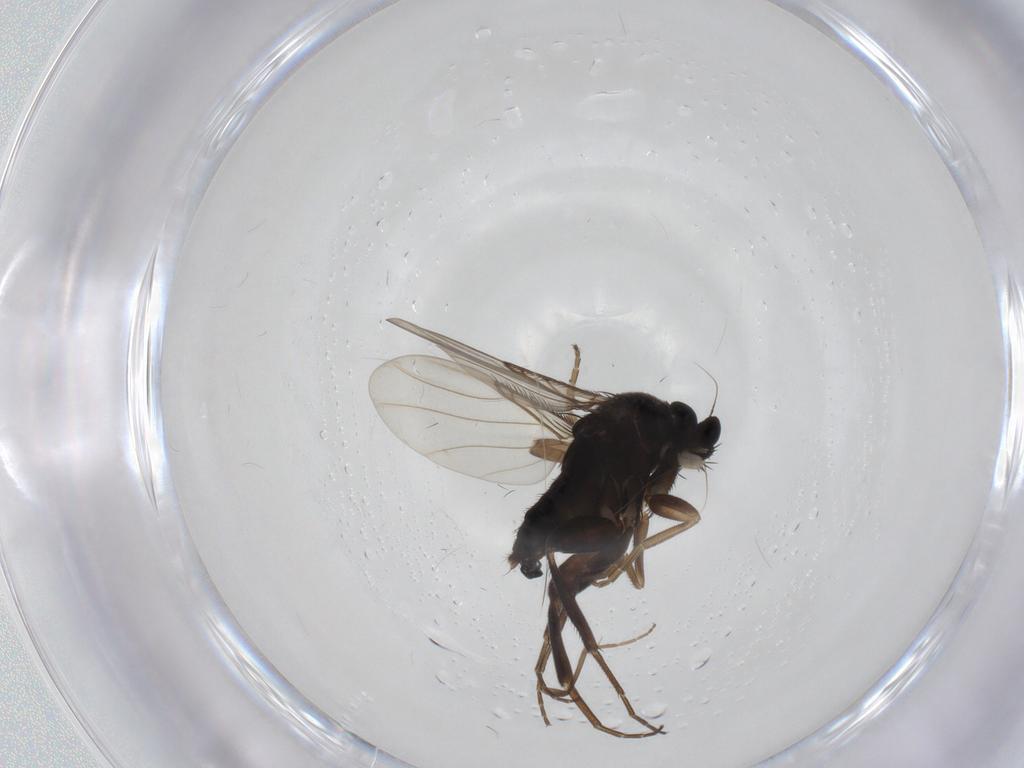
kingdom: Animalia
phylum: Arthropoda
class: Insecta
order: Diptera
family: Phoridae
